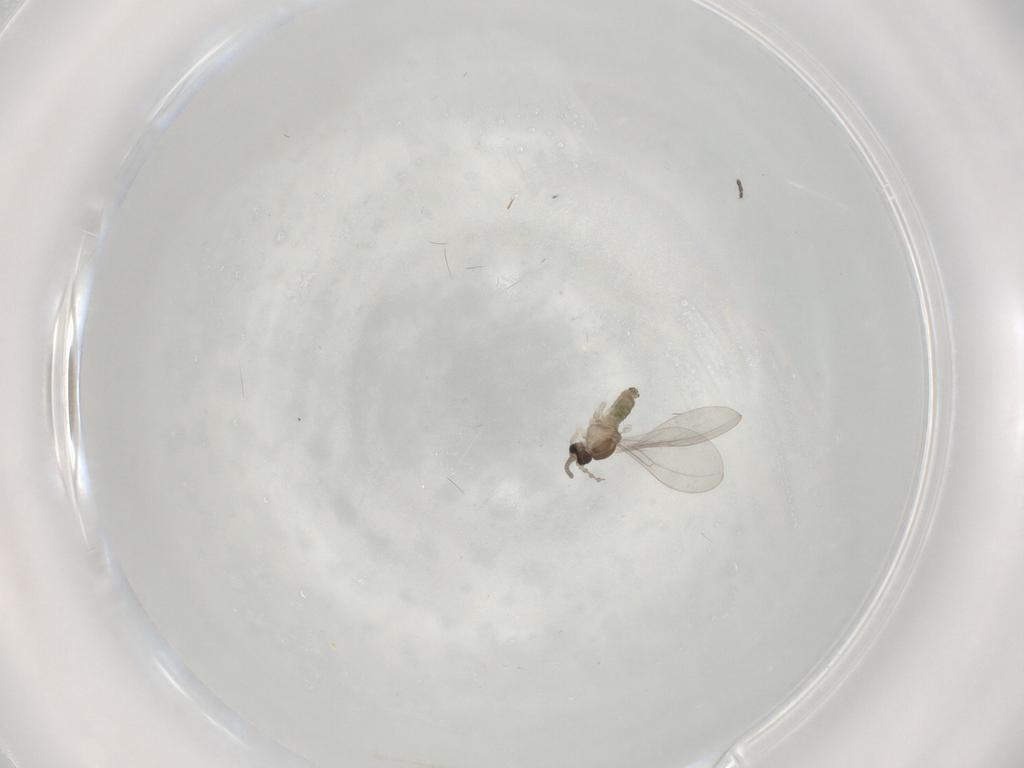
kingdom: Animalia
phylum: Arthropoda
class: Insecta
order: Diptera
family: Cecidomyiidae
